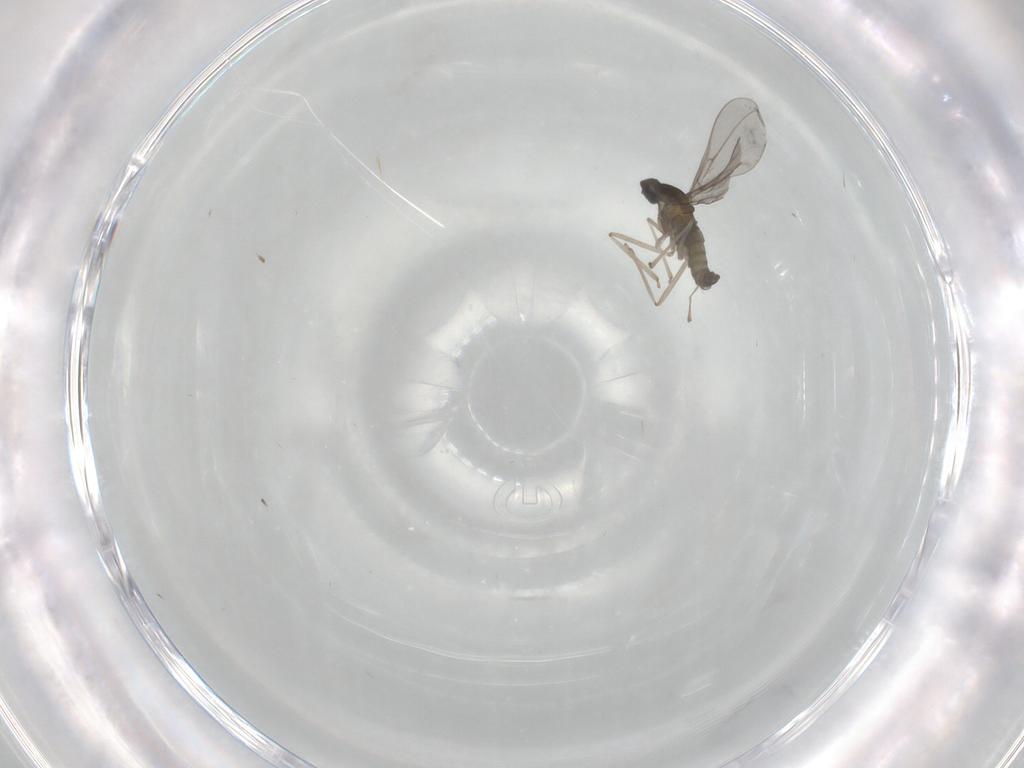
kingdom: Animalia
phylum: Arthropoda
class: Insecta
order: Diptera
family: Cecidomyiidae
